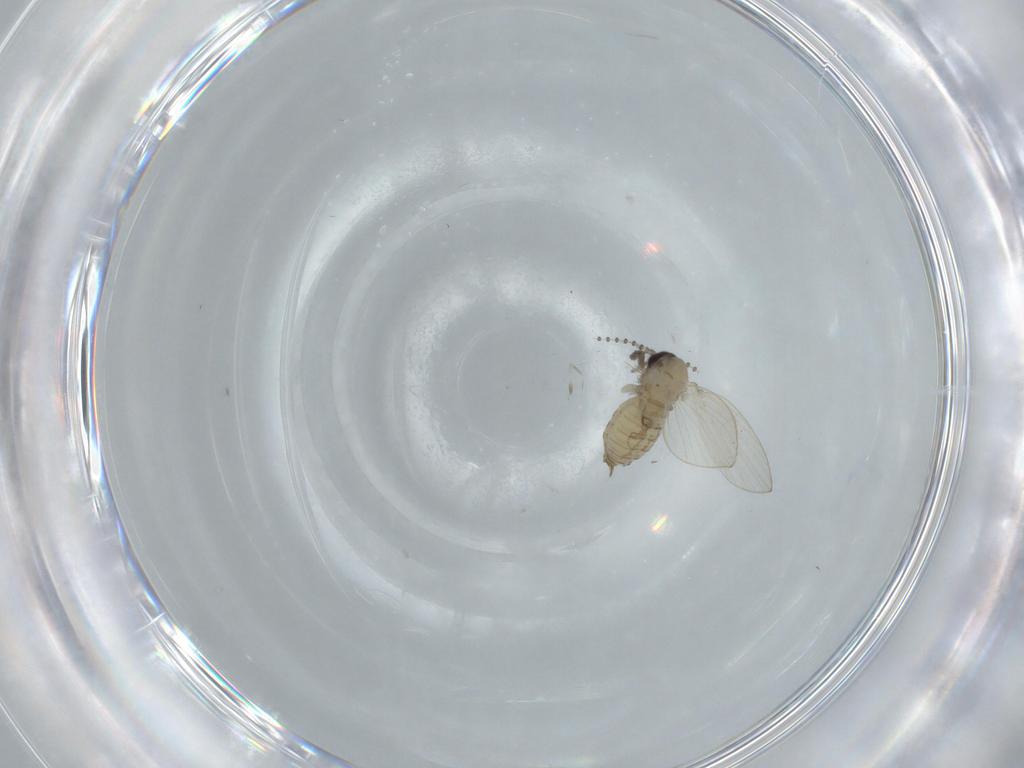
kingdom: Animalia
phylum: Arthropoda
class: Insecta
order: Diptera
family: Psychodidae
